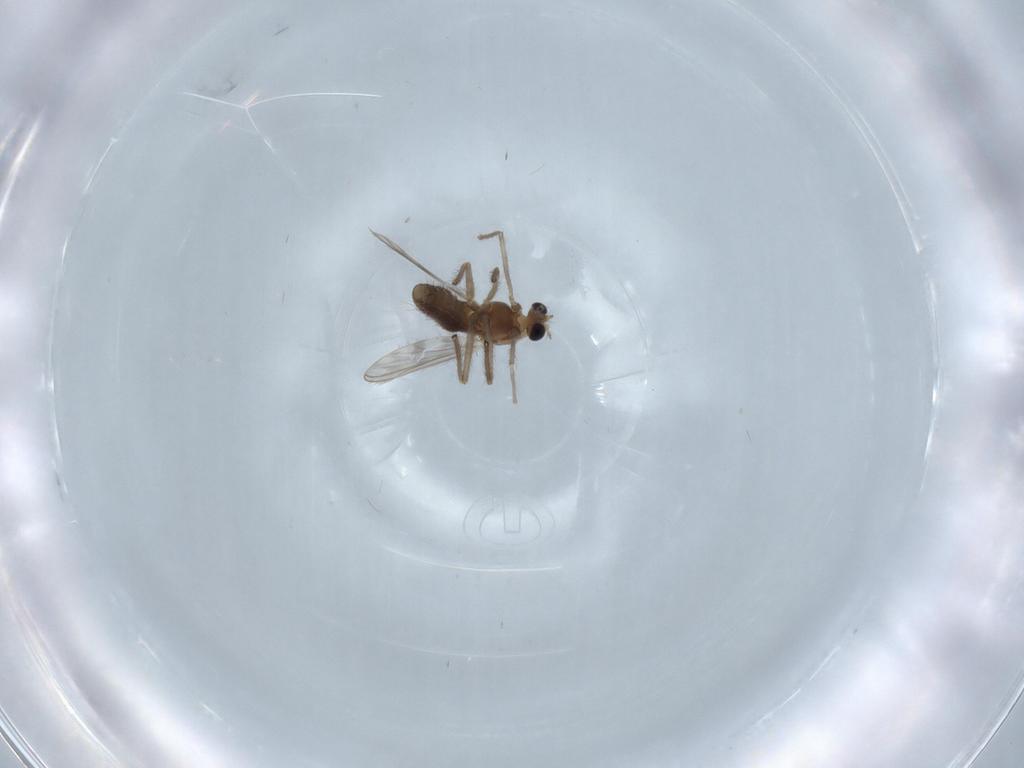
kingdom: Animalia
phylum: Arthropoda
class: Insecta
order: Diptera
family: Chironomidae
